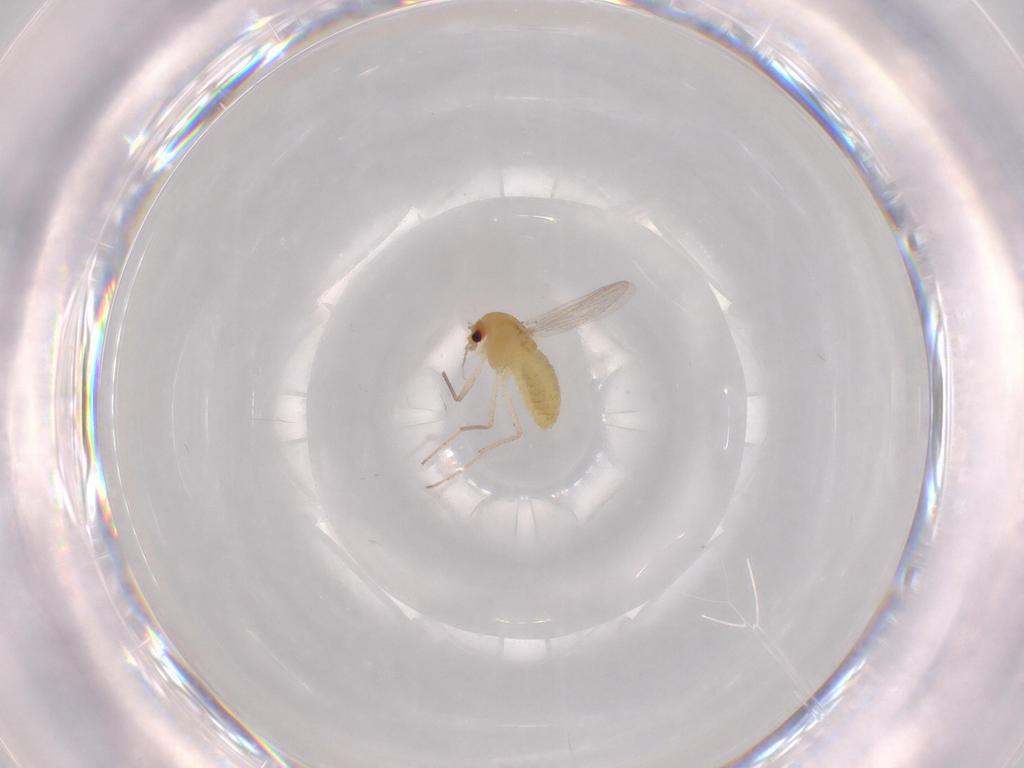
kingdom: Animalia
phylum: Arthropoda
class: Insecta
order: Diptera
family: Chironomidae
